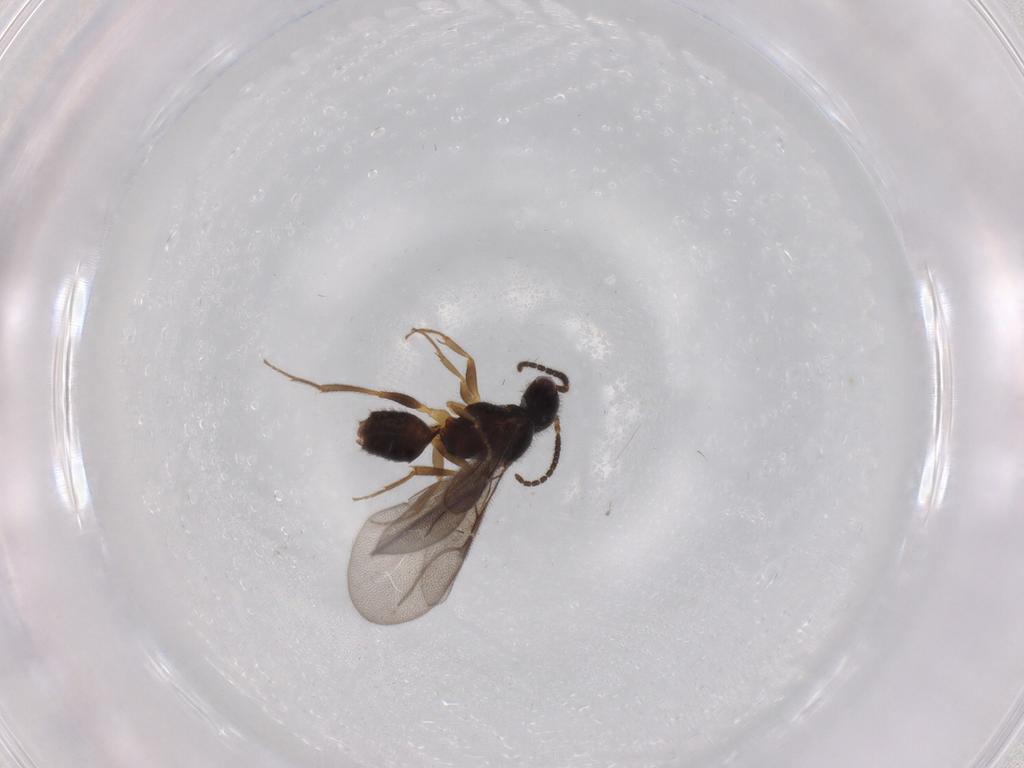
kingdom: Animalia
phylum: Arthropoda
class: Insecta
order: Hymenoptera
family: Bethylidae
